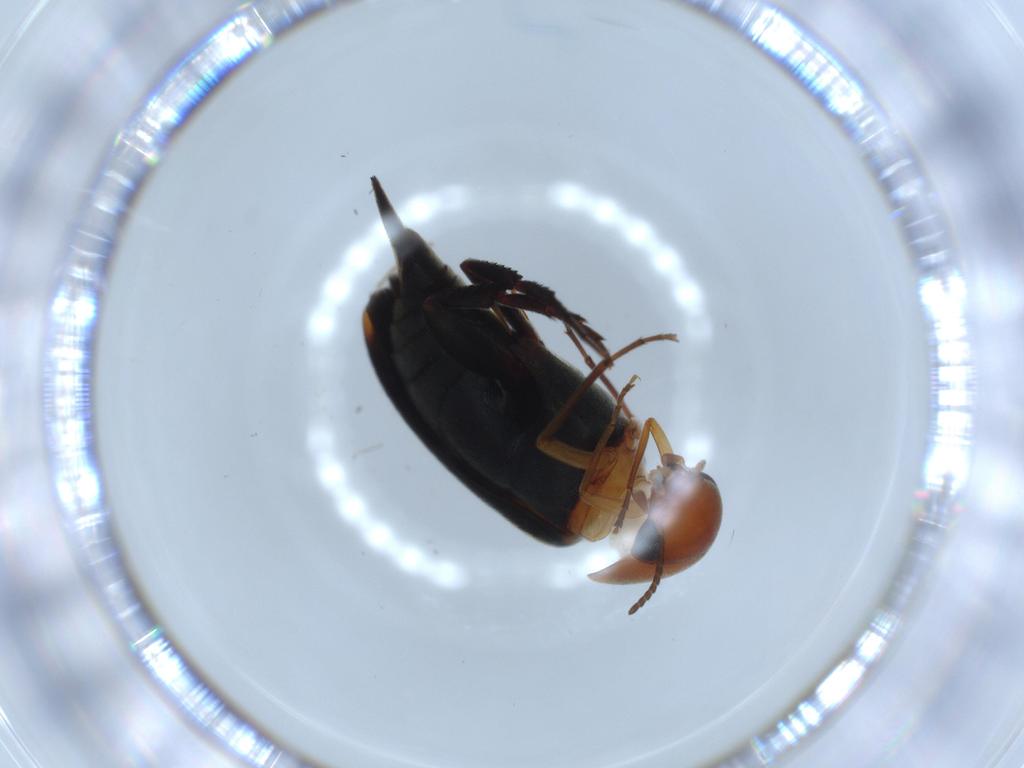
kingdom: Animalia
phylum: Arthropoda
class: Insecta
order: Coleoptera
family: Mordellidae
